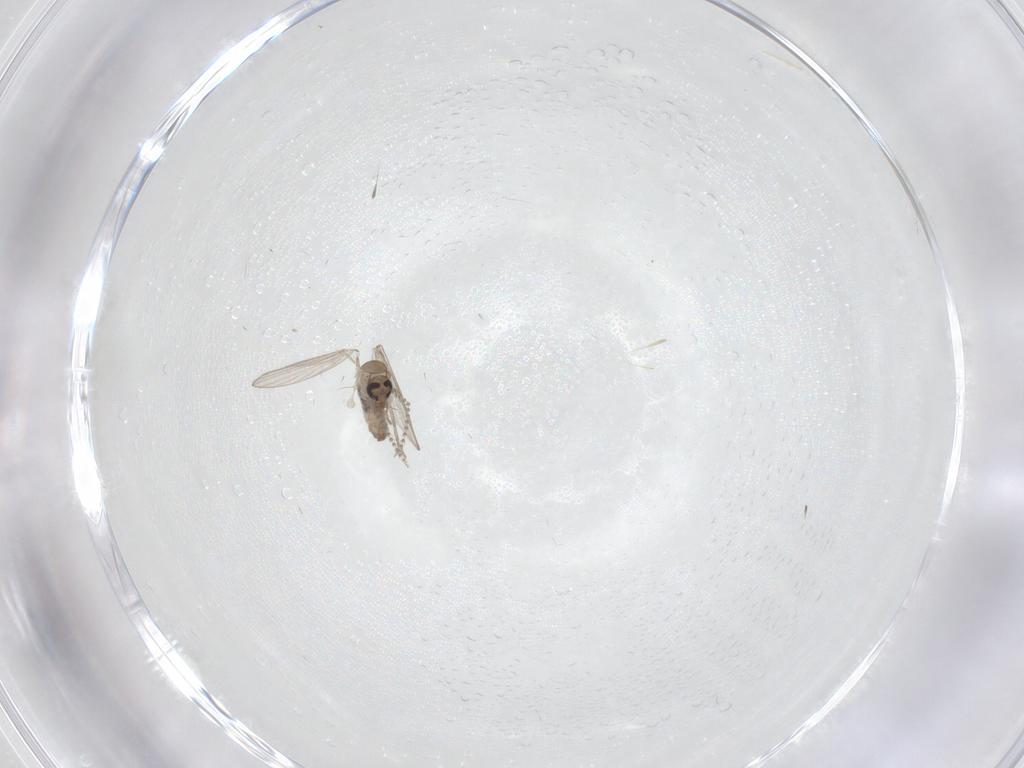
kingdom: Animalia
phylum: Arthropoda
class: Insecta
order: Diptera
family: Psychodidae
